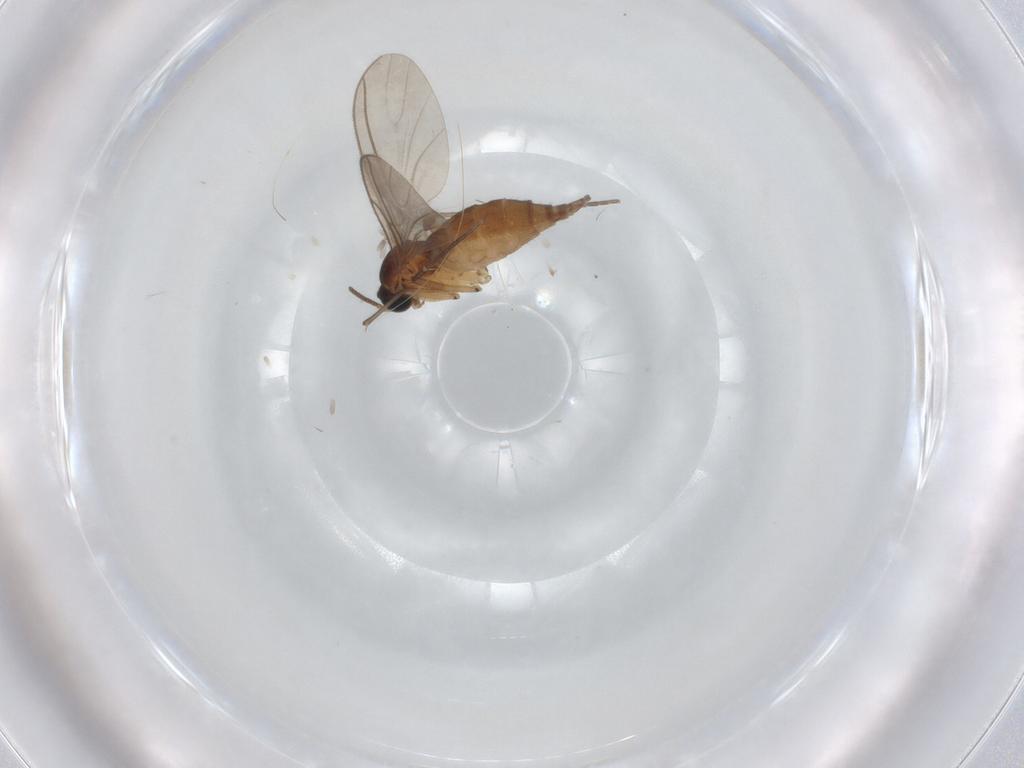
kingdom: Animalia
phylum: Arthropoda
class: Insecta
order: Diptera
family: Sciaridae
